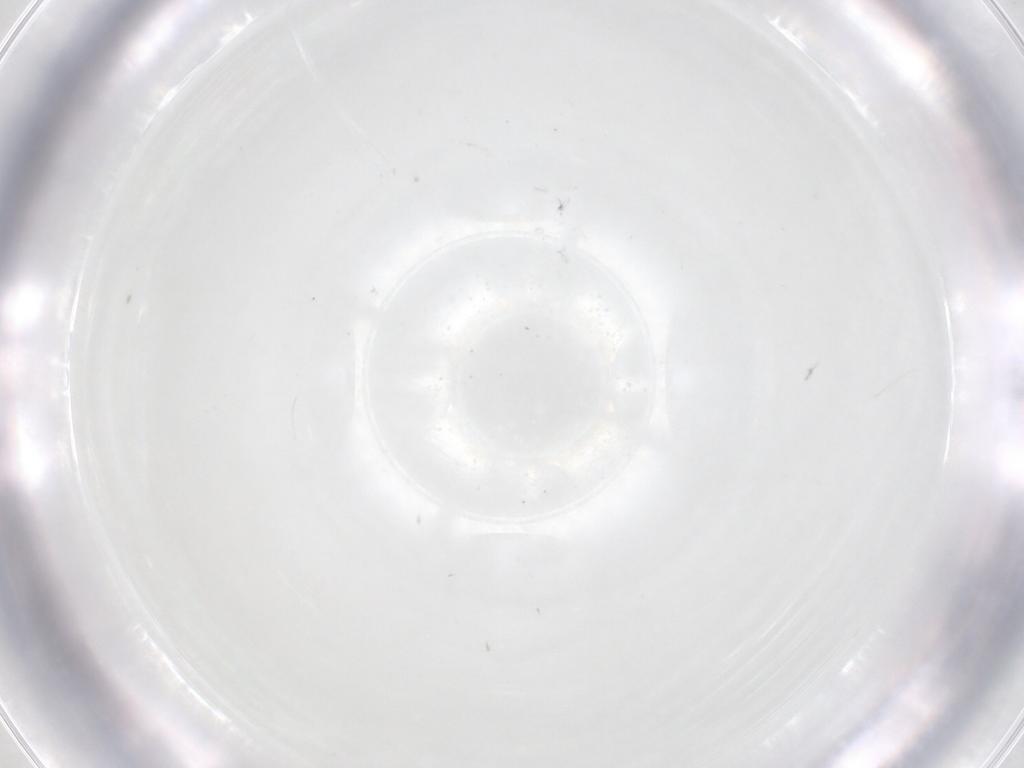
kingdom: Animalia
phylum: Arthropoda
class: Insecta
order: Blattodea
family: Blaberidae
